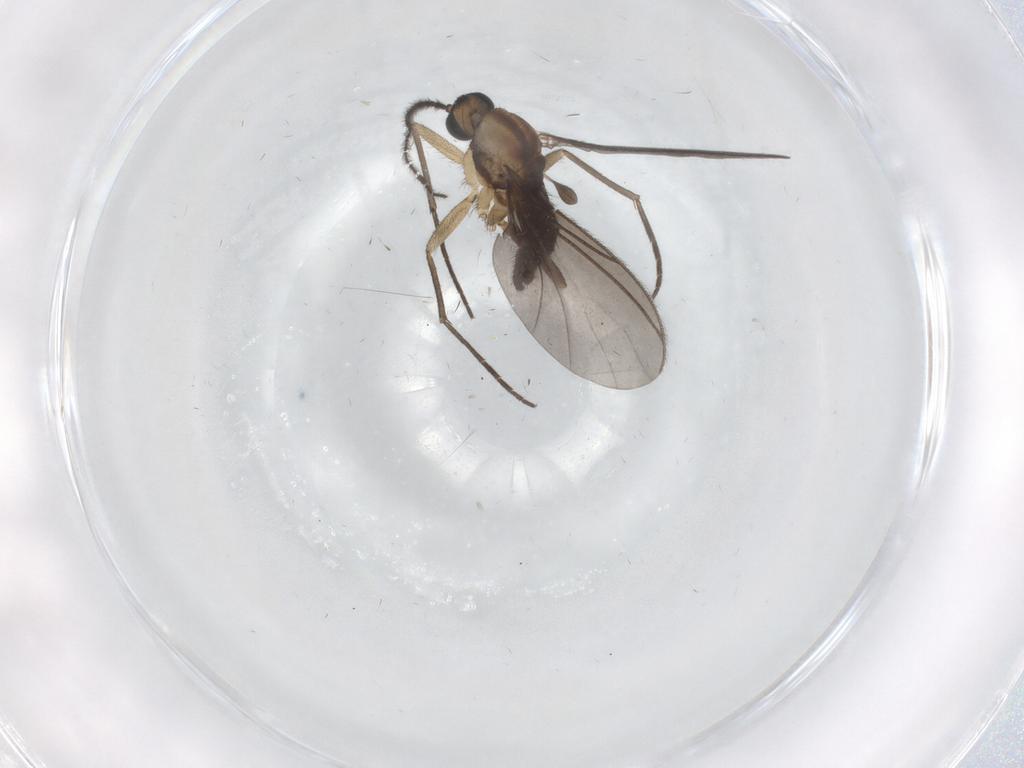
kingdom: Animalia
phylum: Arthropoda
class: Insecta
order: Diptera
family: Sciaridae
